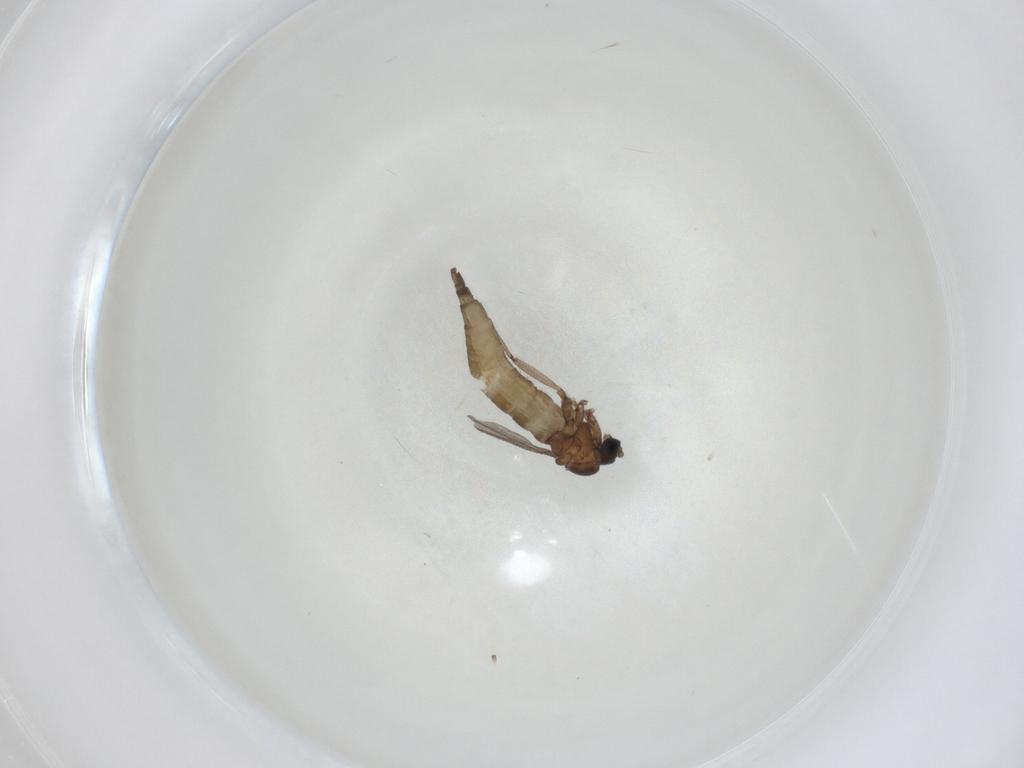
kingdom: Animalia
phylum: Arthropoda
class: Insecta
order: Diptera
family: Sciaridae
